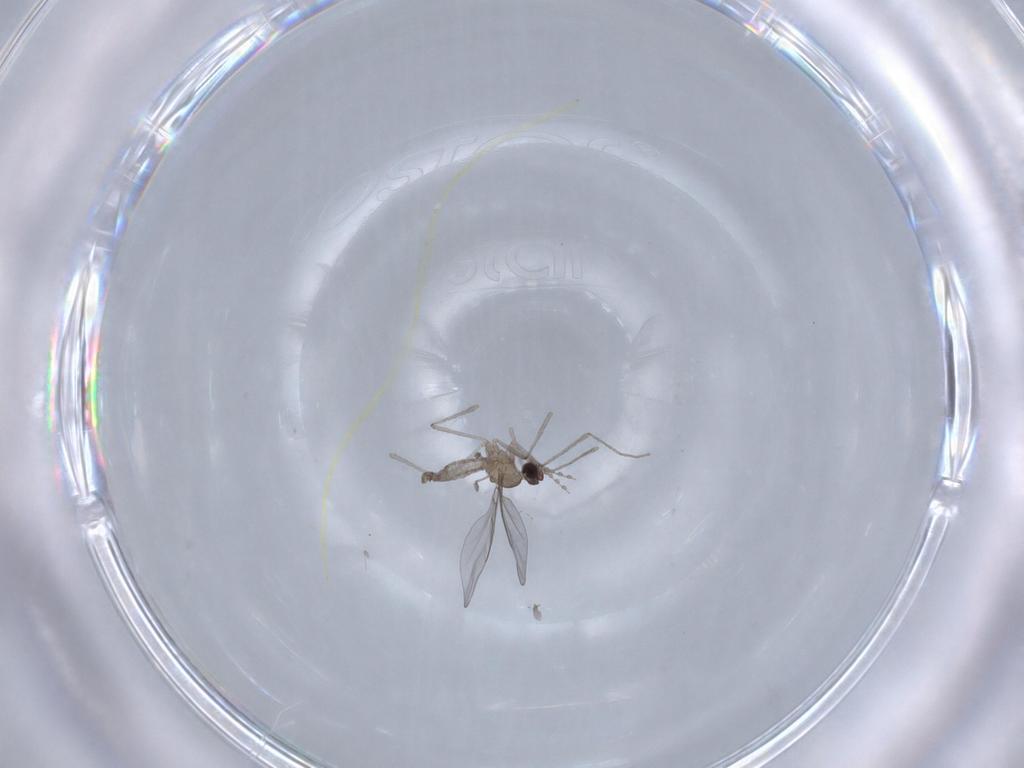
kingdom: Animalia
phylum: Arthropoda
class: Insecta
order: Diptera
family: Cecidomyiidae
